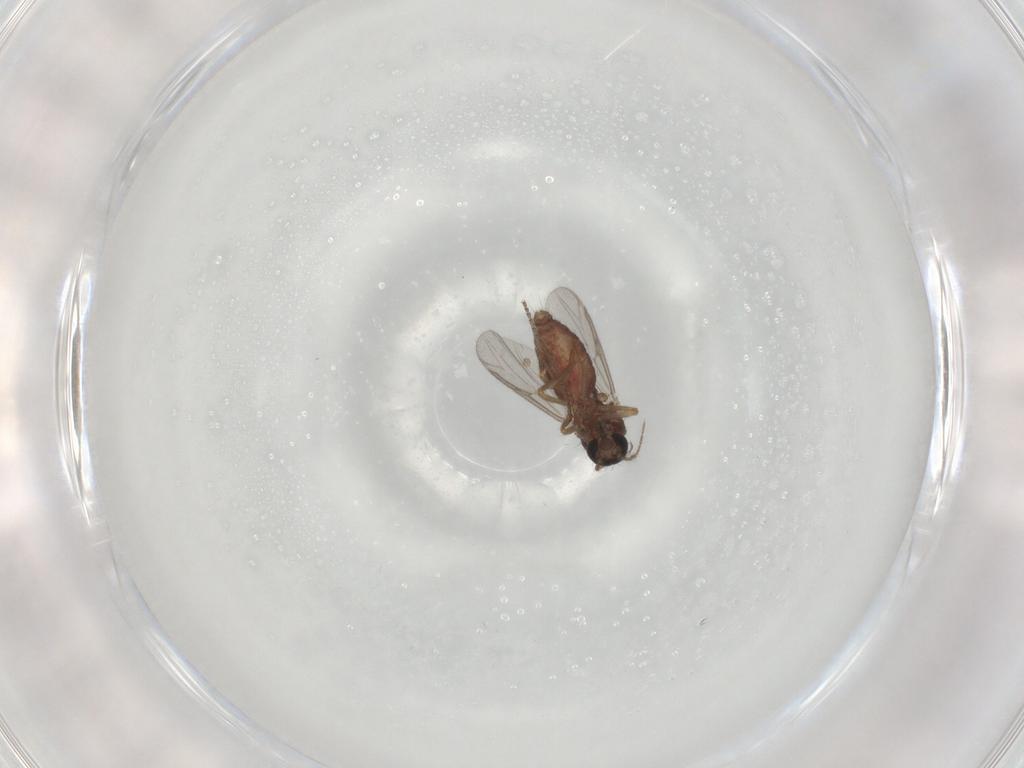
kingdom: Animalia
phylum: Arthropoda
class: Insecta
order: Diptera
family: Ceratopogonidae
